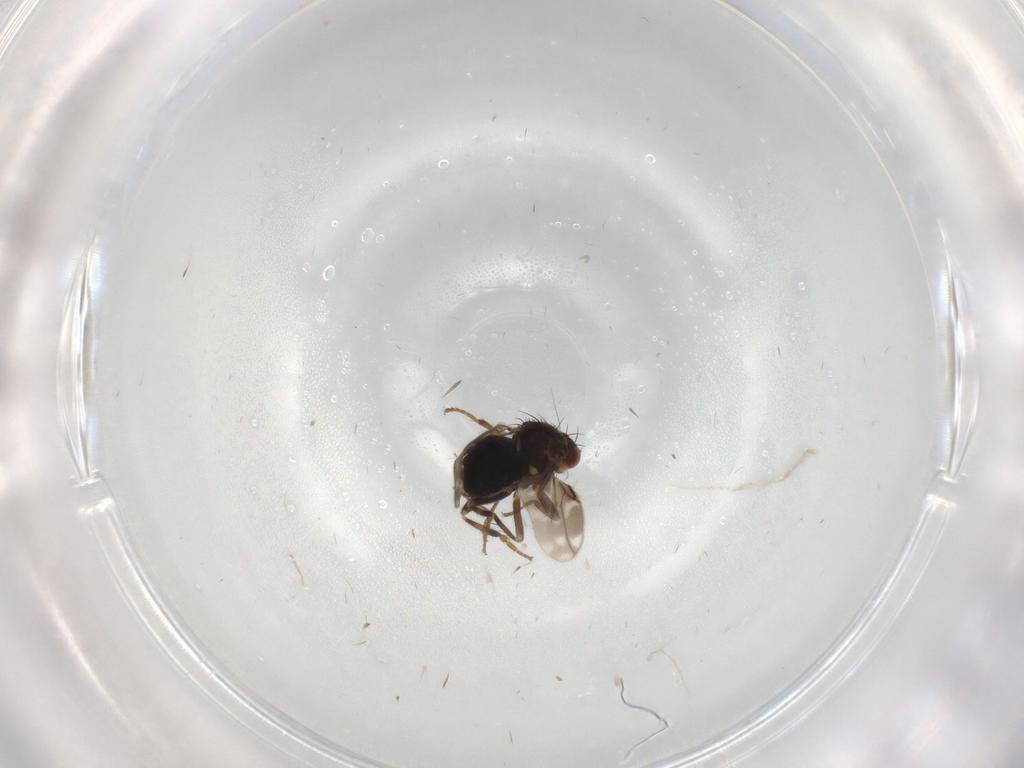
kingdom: Animalia
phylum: Arthropoda
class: Insecta
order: Diptera
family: Sphaeroceridae
